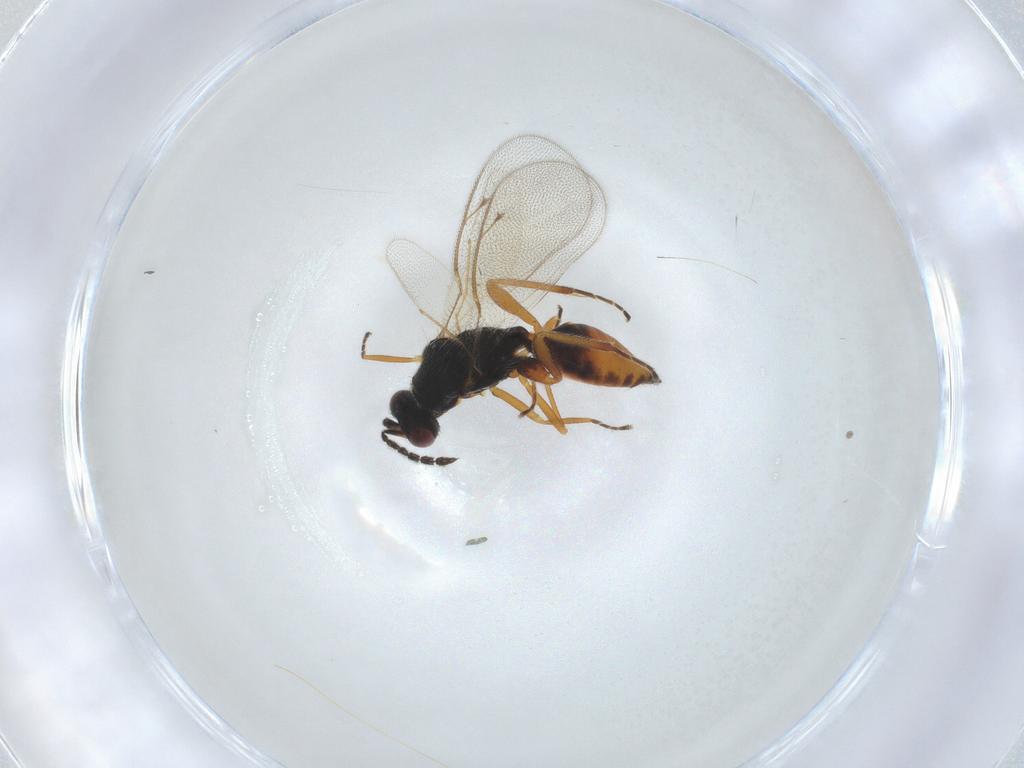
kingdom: Animalia
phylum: Arthropoda
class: Insecta
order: Hymenoptera
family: Eulophidae
